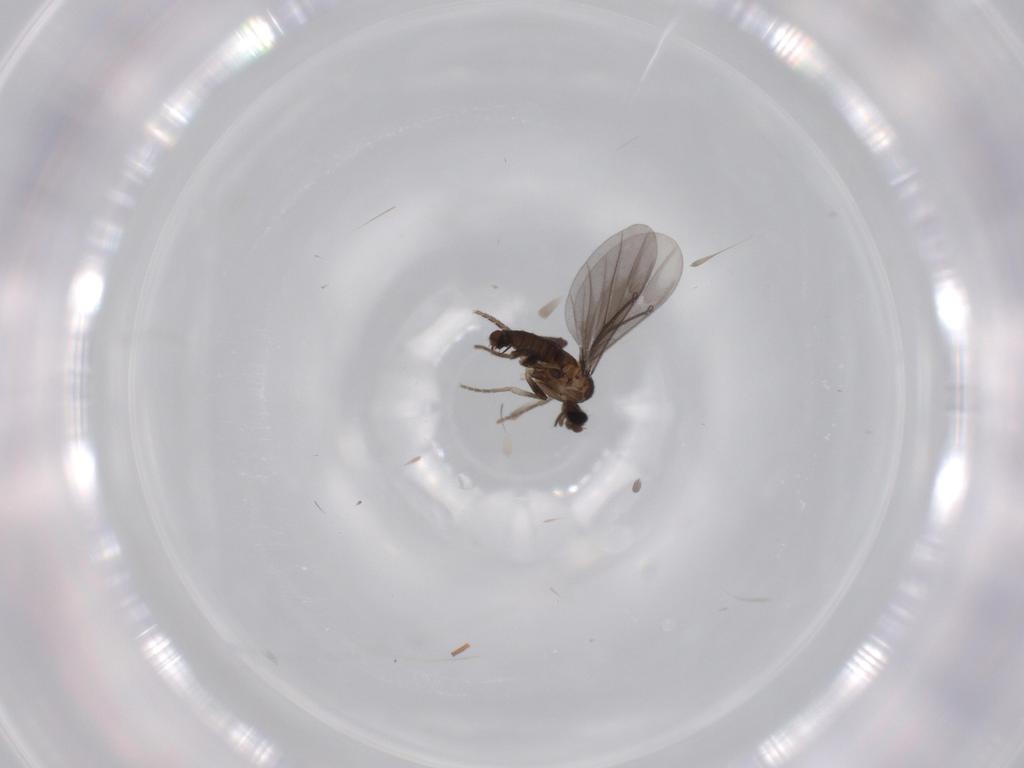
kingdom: Animalia
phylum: Arthropoda
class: Insecta
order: Diptera
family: Phoridae
